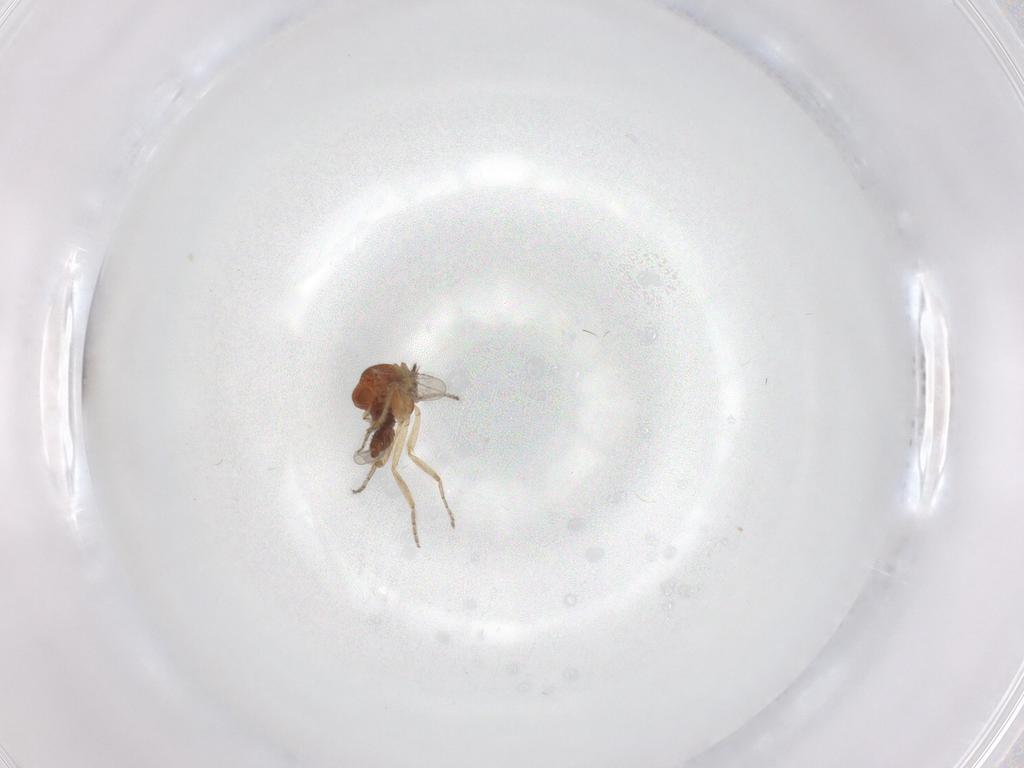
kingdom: Animalia
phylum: Arthropoda
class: Insecta
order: Diptera
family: Ceratopogonidae
